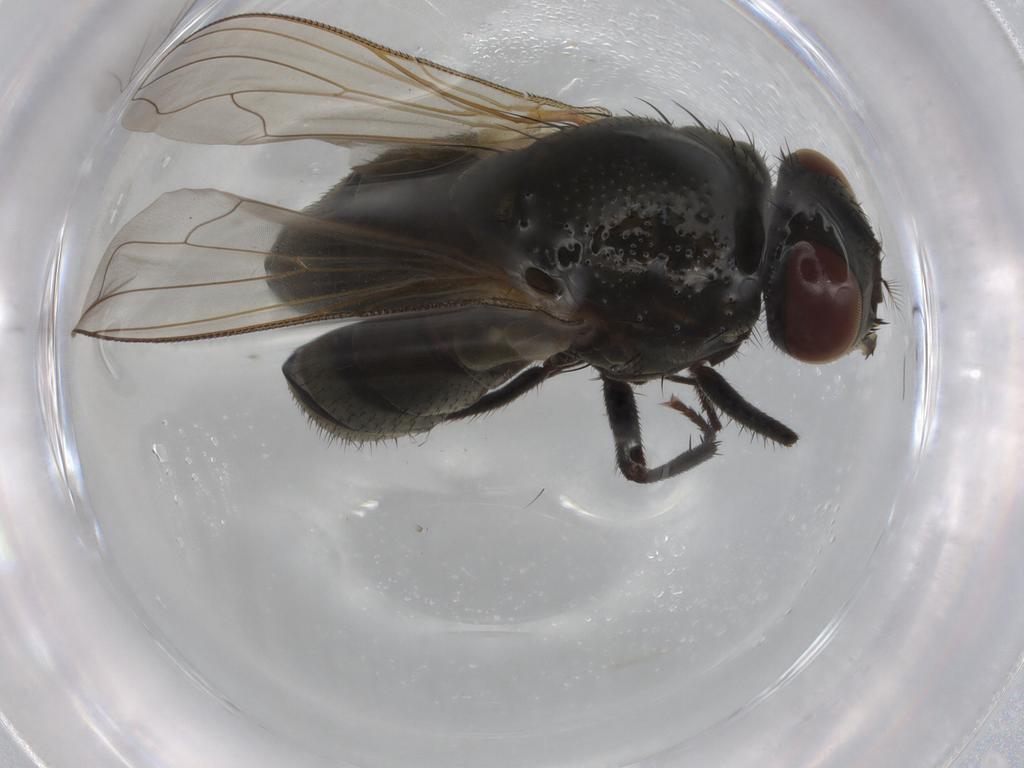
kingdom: Animalia
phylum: Arthropoda
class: Insecta
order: Diptera
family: Muscidae
